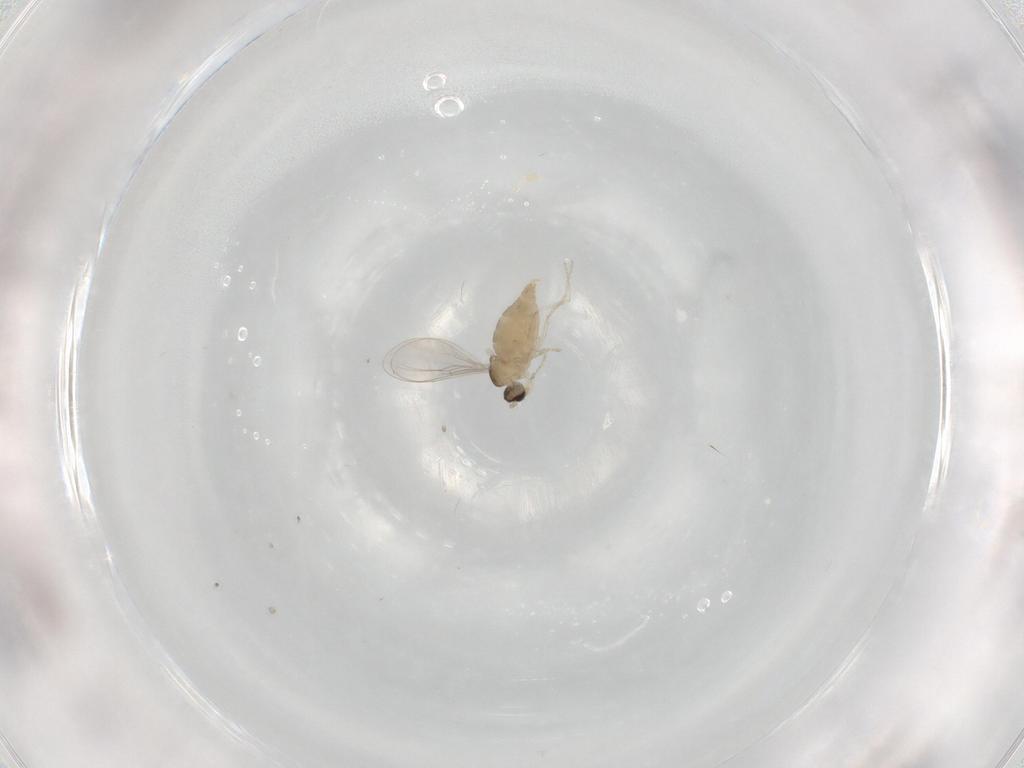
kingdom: Animalia
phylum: Arthropoda
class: Insecta
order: Diptera
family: Cecidomyiidae
